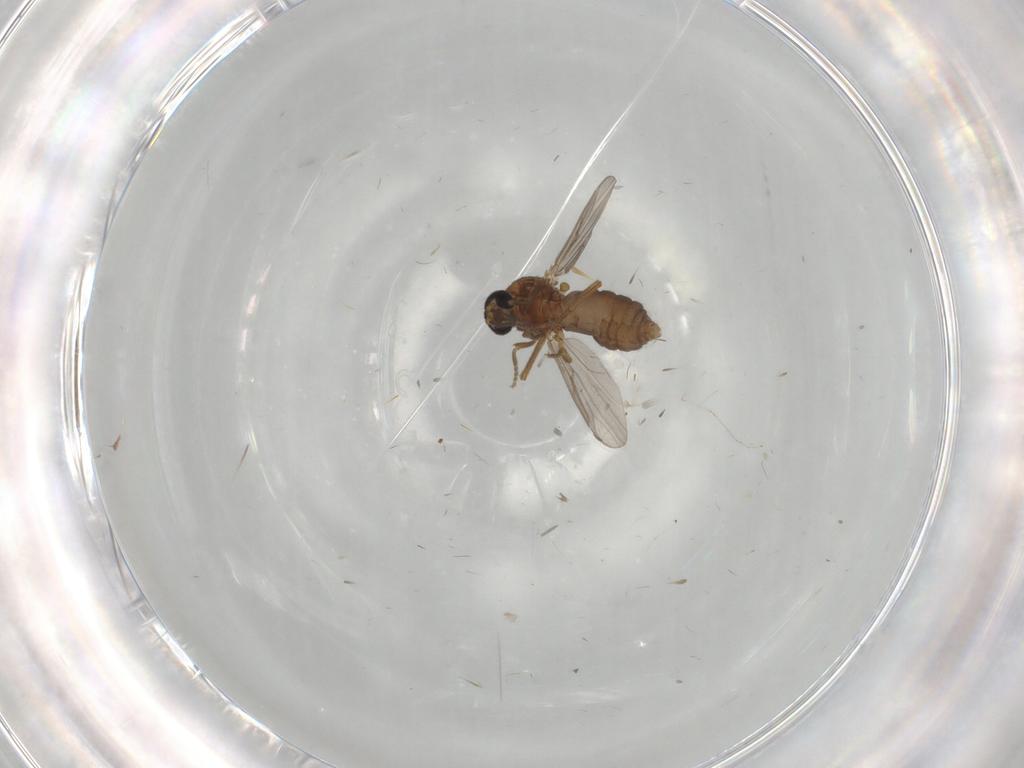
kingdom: Animalia
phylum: Arthropoda
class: Insecta
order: Diptera
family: Ceratopogonidae
